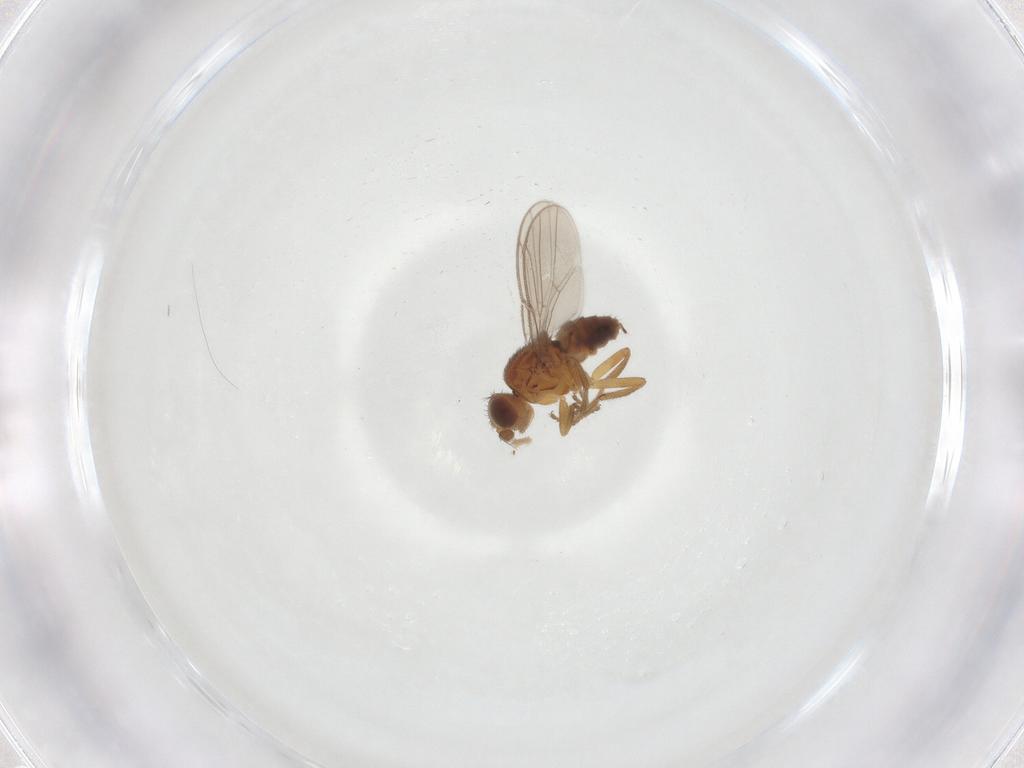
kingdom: Animalia
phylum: Arthropoda
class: Insecta
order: Diptera
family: Chloropidae
